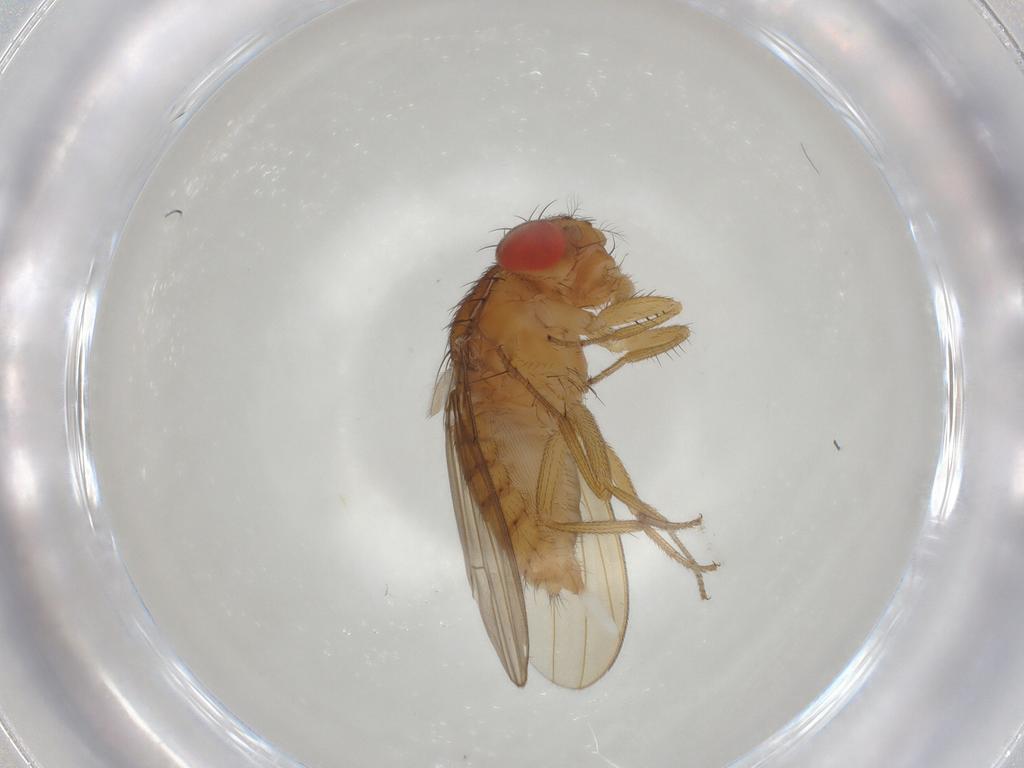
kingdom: Animalia
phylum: Arthropoda
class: Insecta
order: Diptera
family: Drosophilidae
